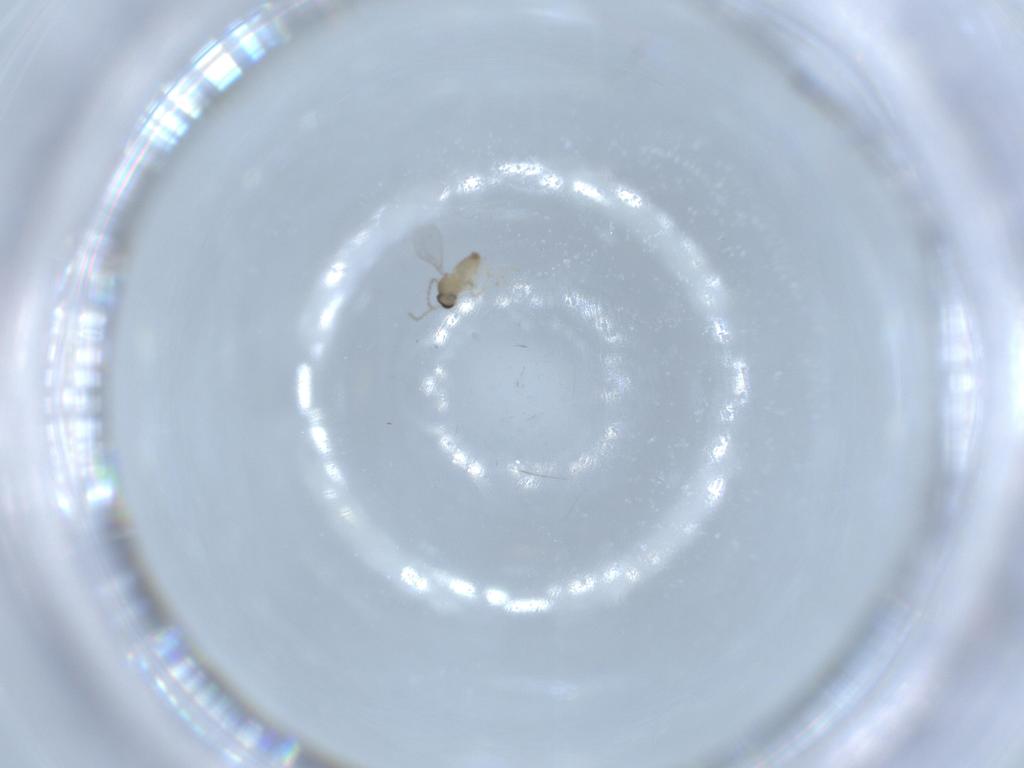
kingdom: Animalia
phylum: Arthropoda
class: Insecta
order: Diptera
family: Cecidomyiidae
